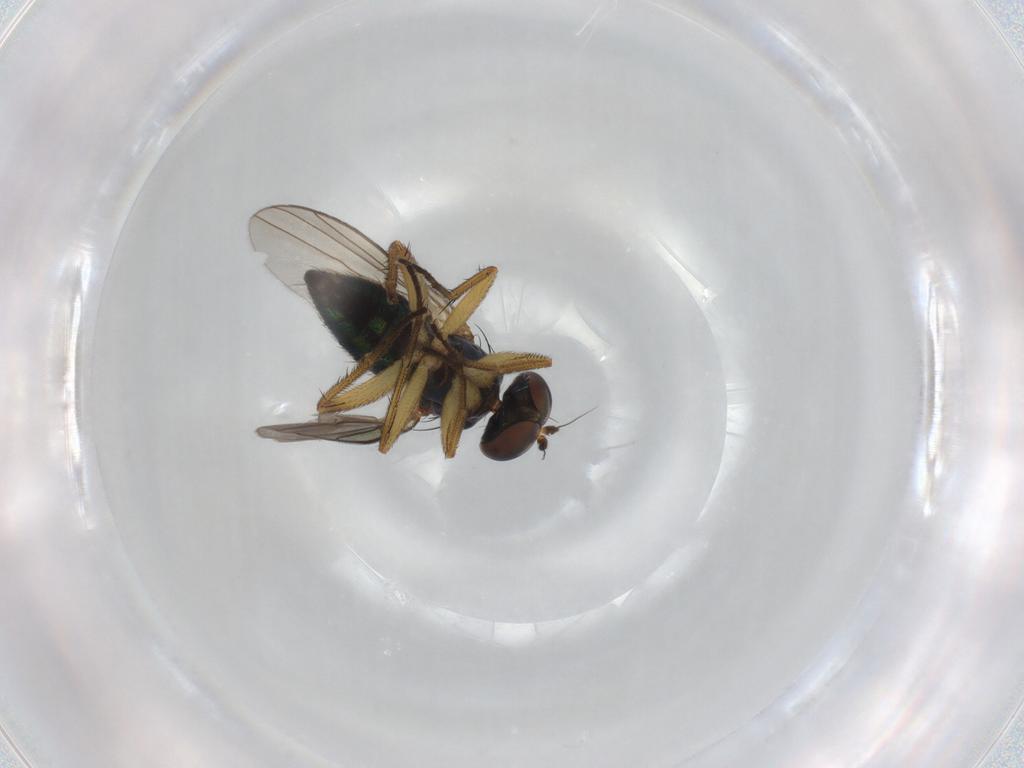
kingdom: Animalia
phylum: Arthropoda
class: Insecta
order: Diptera
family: Dolichopodidae
